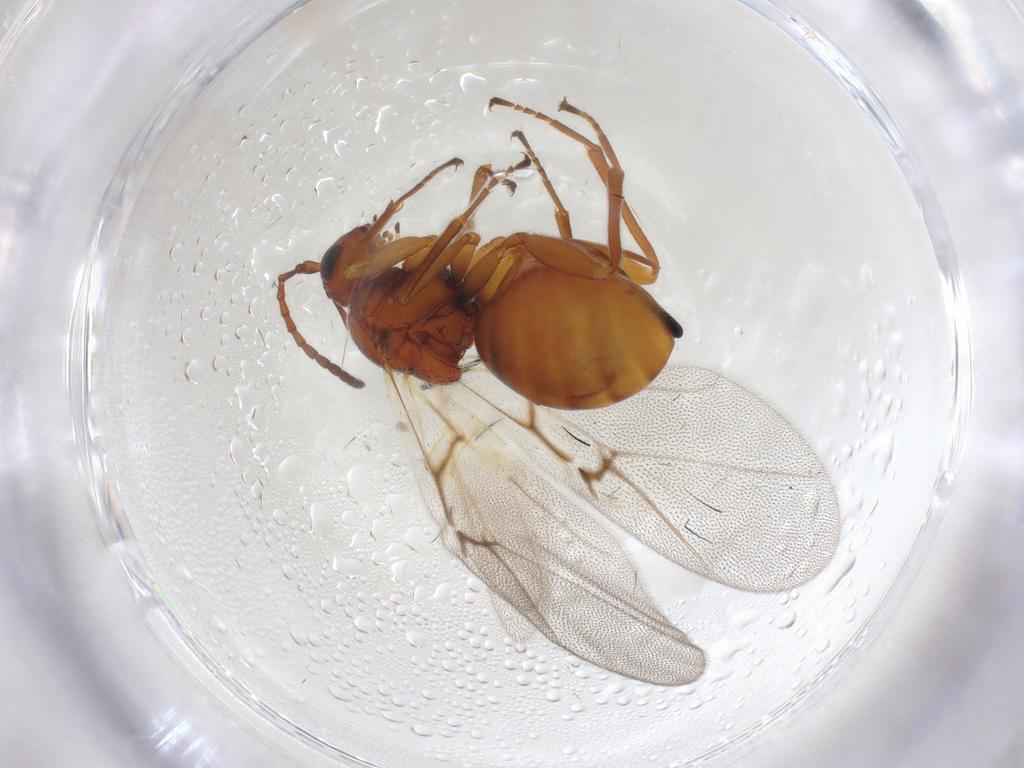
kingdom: Animalia
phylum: Arthropoda
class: Insecta
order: Hymenoptera
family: Cynipidae
